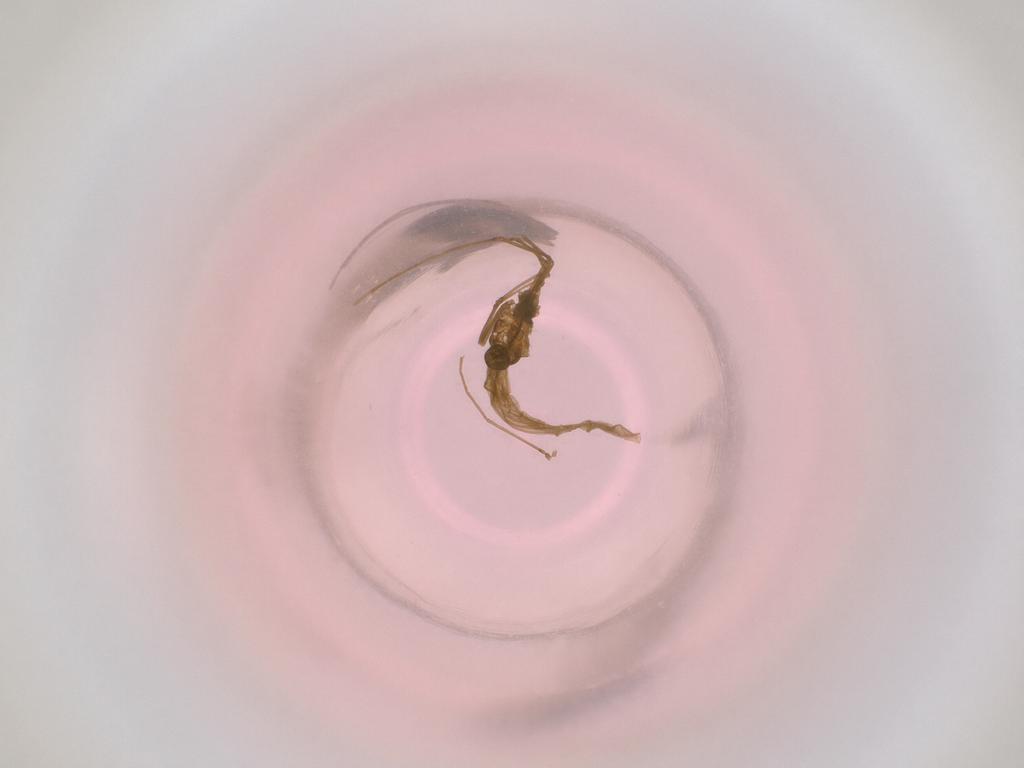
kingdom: Animalia
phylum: Arthropoda
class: Insecta
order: Diptera
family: Cecidomyiidae
